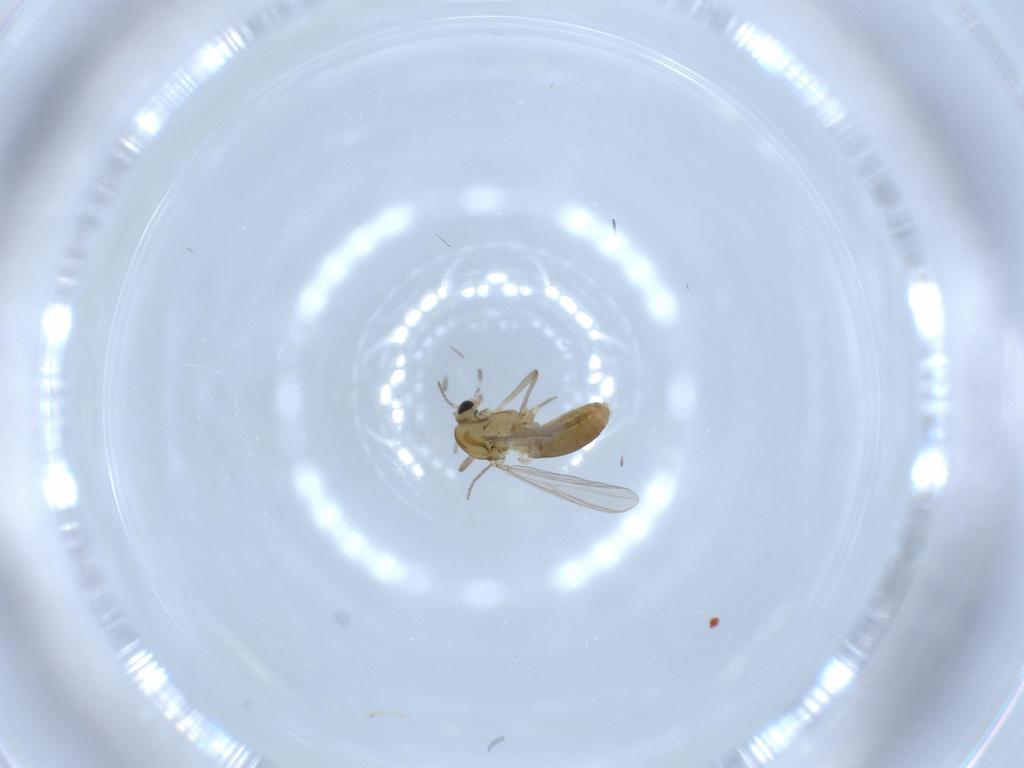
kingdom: Animalia
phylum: Arthropoda
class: Insecta
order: Diptera
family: Chironomidae
